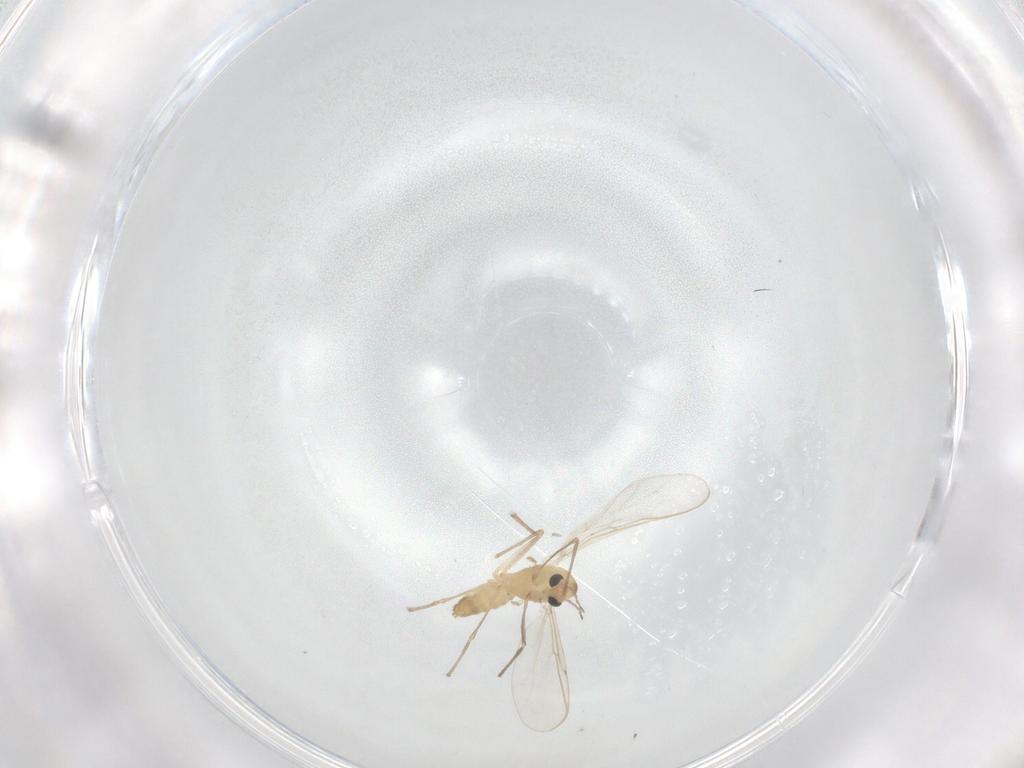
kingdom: Animalia
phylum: Arthropoda
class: Insecta
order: Diptera
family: Chironomidae
